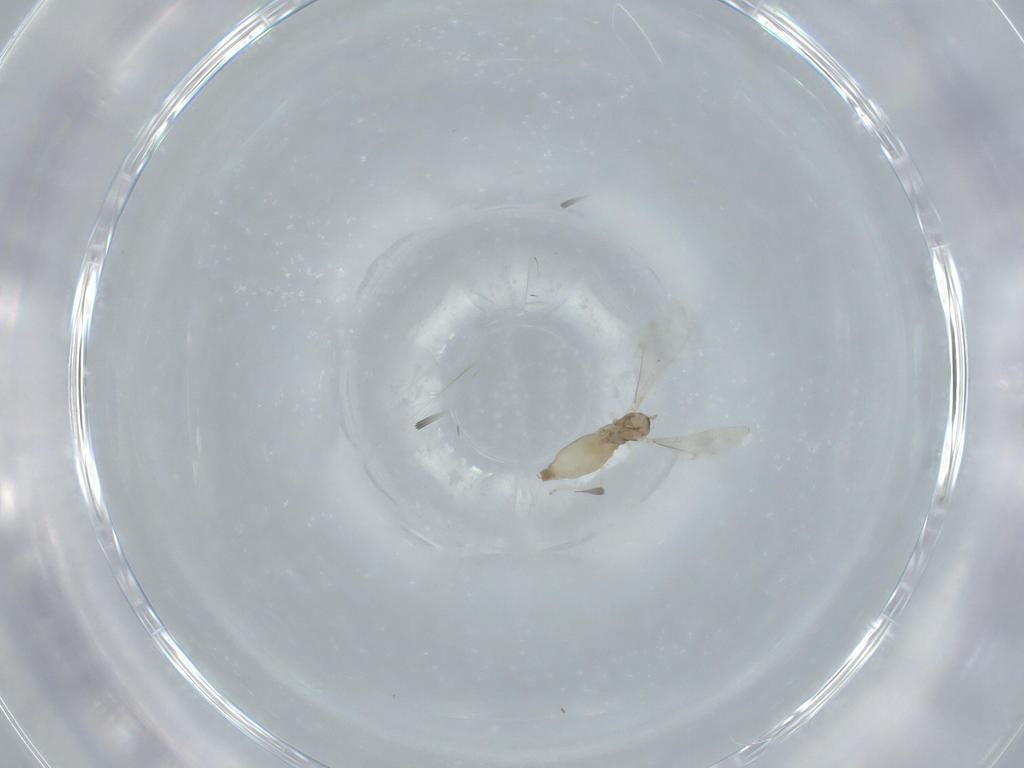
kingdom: Animalia
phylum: Arthropoda
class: Insecta
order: Diptera
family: Cecidomyiidae
